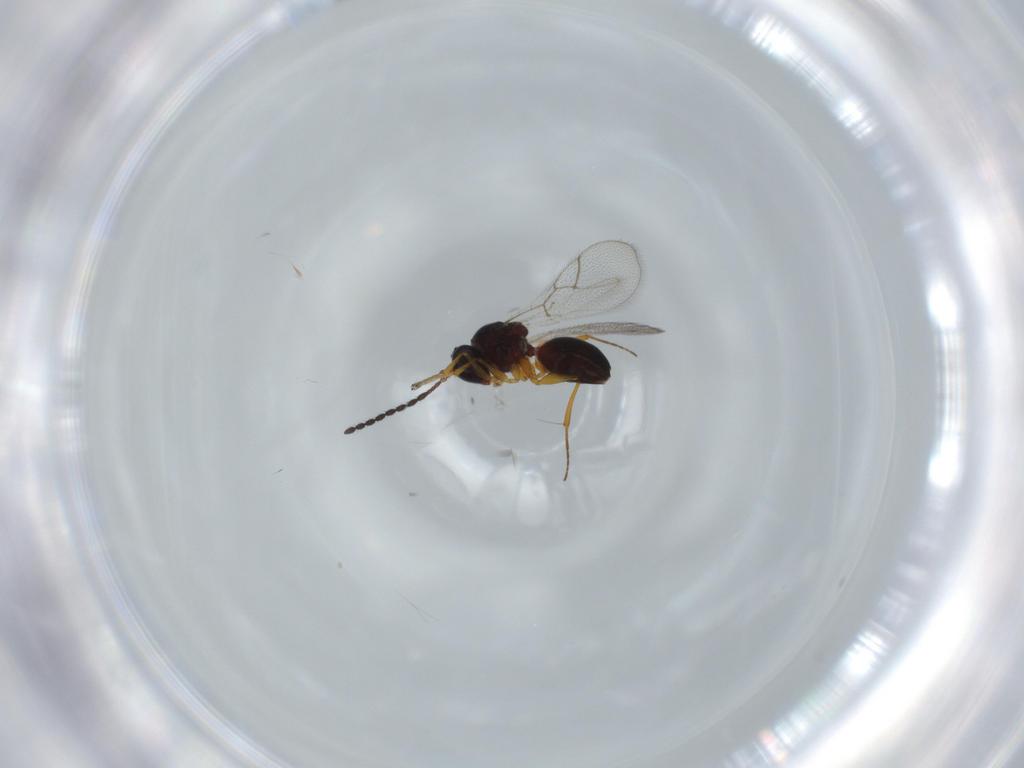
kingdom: Animalia
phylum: Arthropoda
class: Insecta
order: Hymenoptera
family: Figitidae
